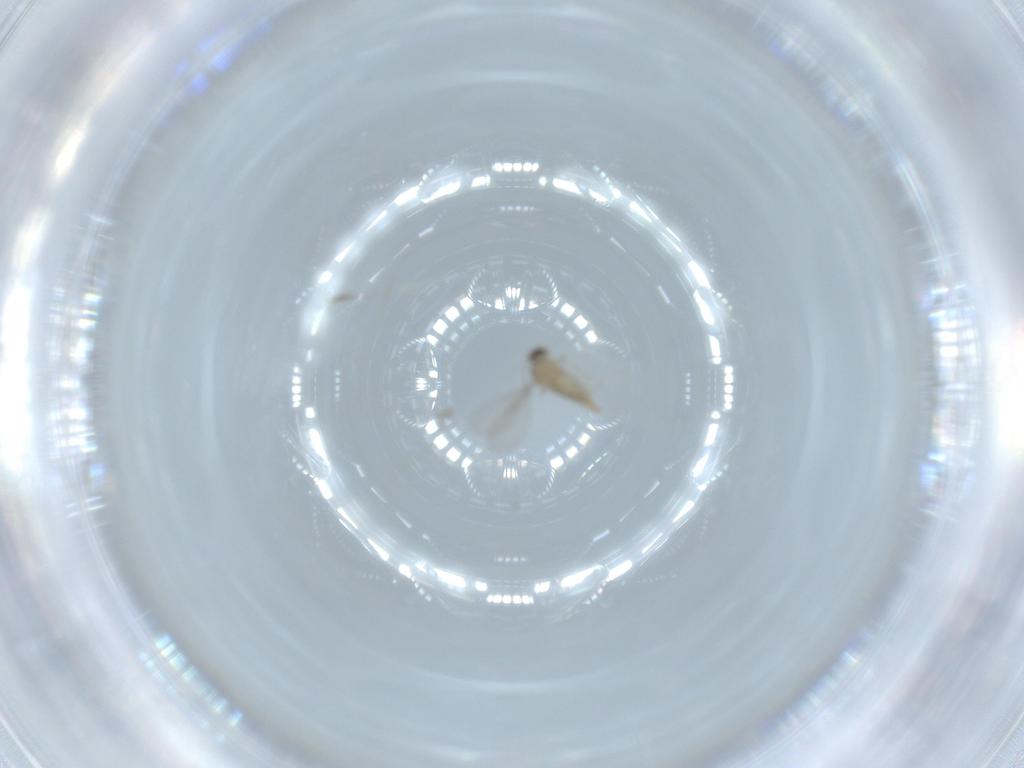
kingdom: Animalia
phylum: Arthropoda
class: Insecta
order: Diptera
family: Cecidomyiidae
